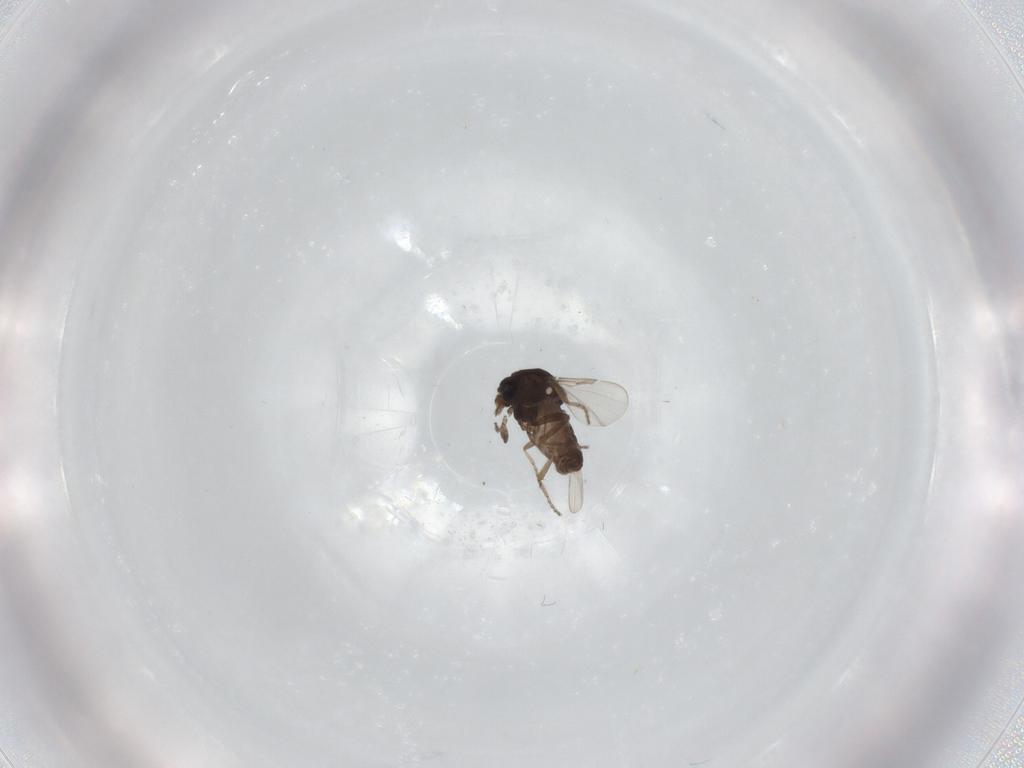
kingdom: Animalia
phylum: Arthropoda
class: Insecta
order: Diptera
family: Ceratopogonidae
